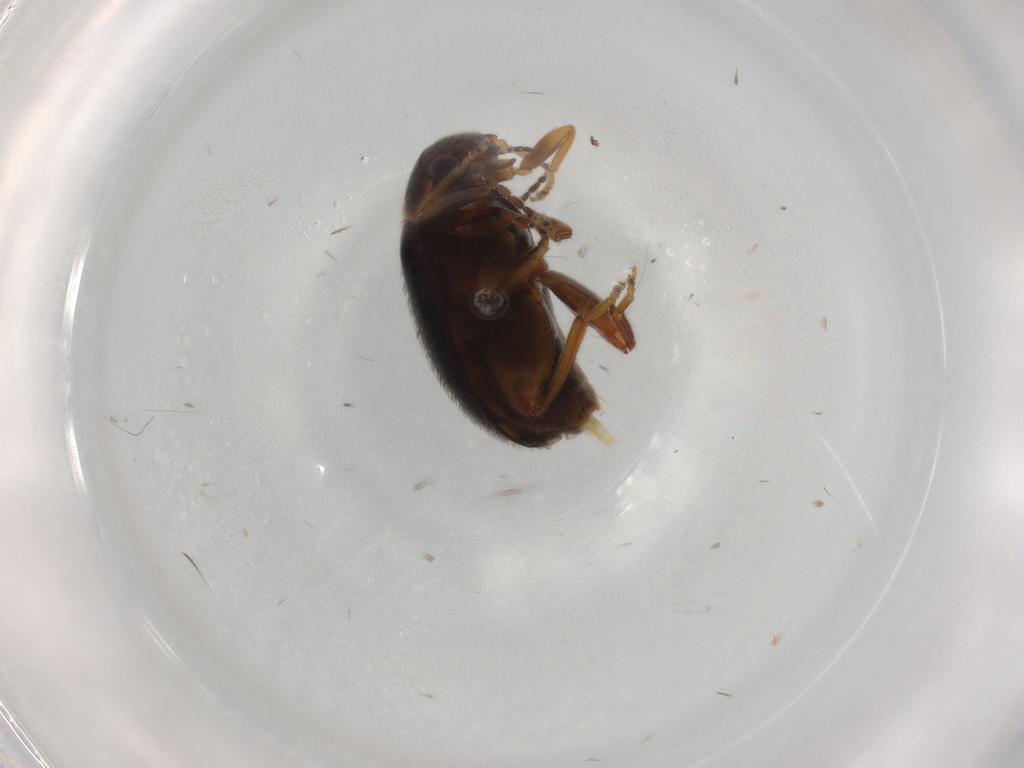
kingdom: Animalia
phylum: Arthropoda
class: Insecta
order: Coleoptera
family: Scirtidae
